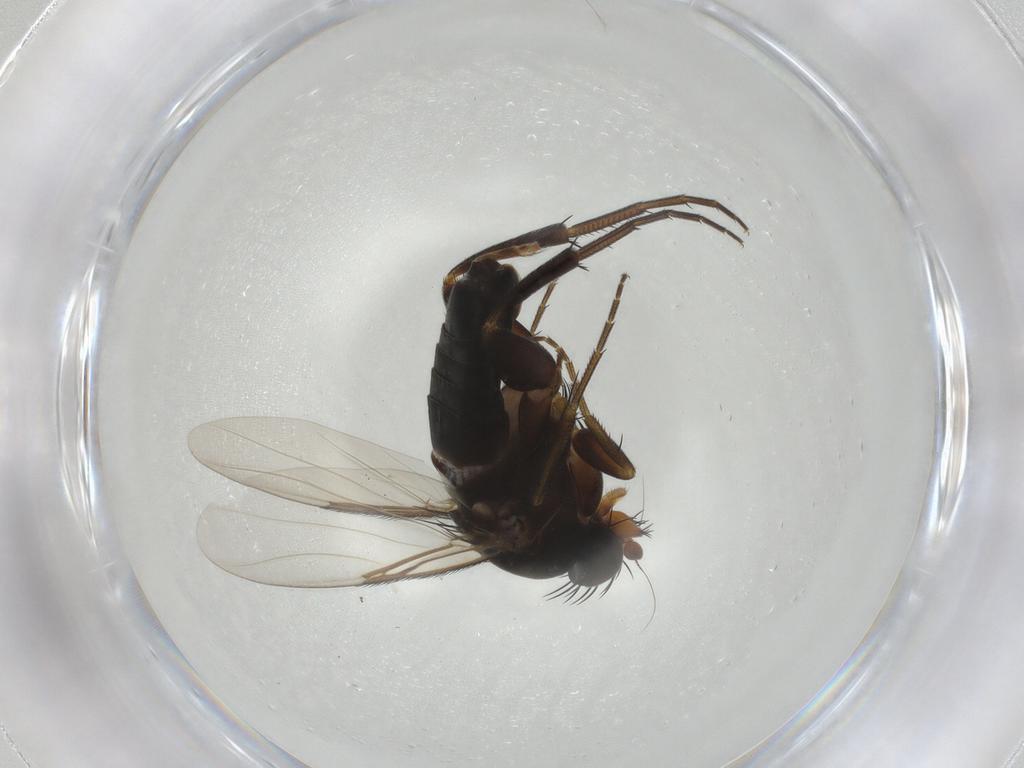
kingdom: Animalia
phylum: Arthropoda
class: Insecta
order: Diptera
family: Phoridae
